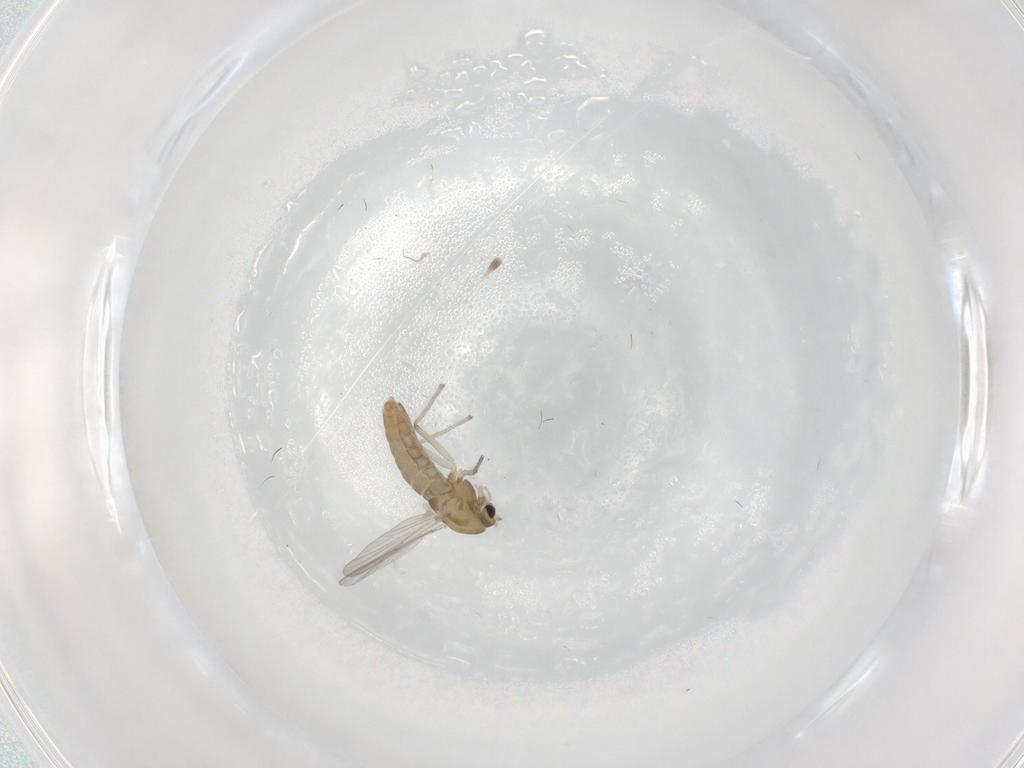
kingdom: Animalia
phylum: Arthropoda
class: Insecta
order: Diptera
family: Chironomidae
